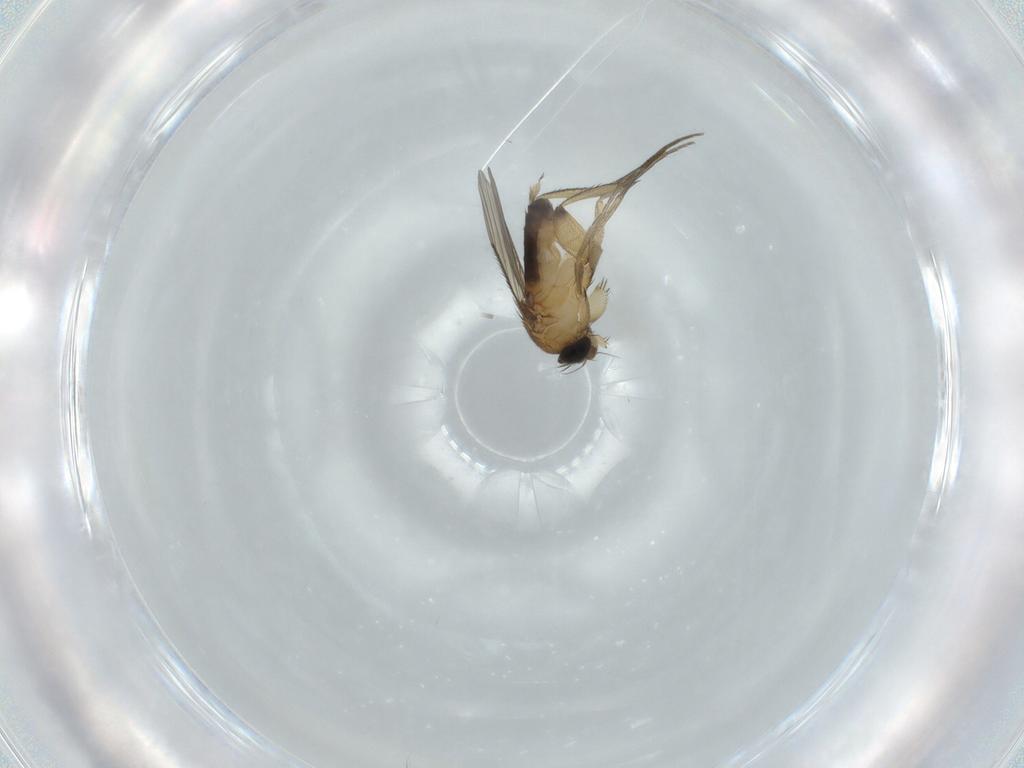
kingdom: Animalia
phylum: Arthropoda
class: Insecta
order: Diptera
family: Phoridae
